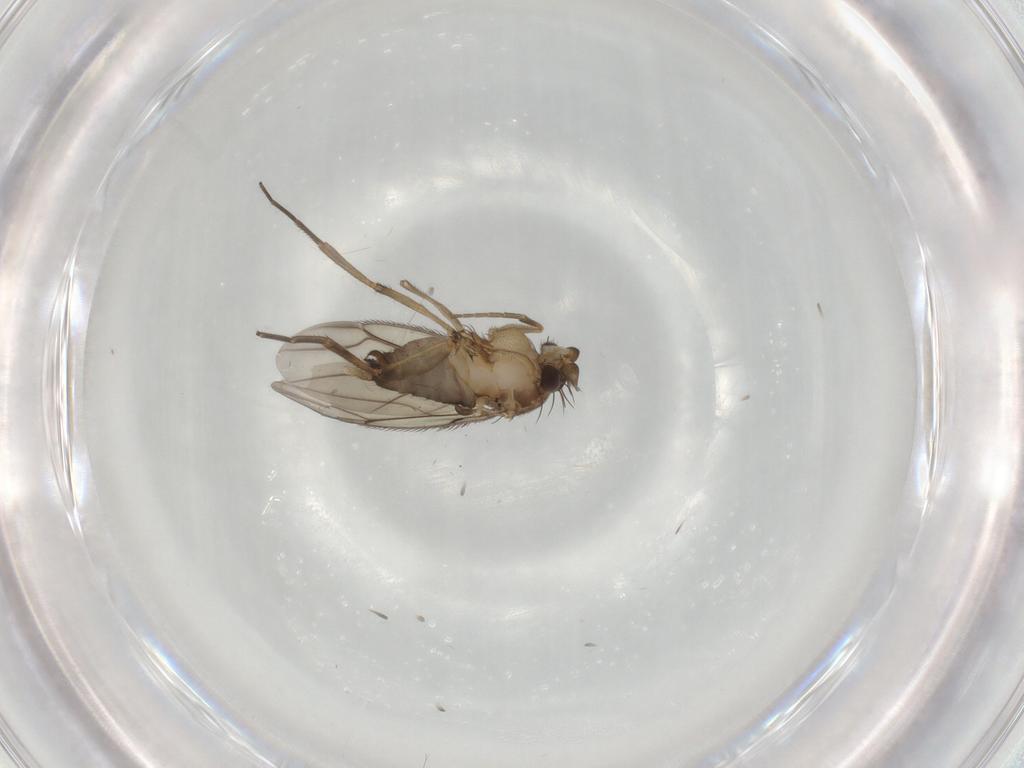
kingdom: Animalia
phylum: Arthropoda
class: Insecta
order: Diptera
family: Phoridae
